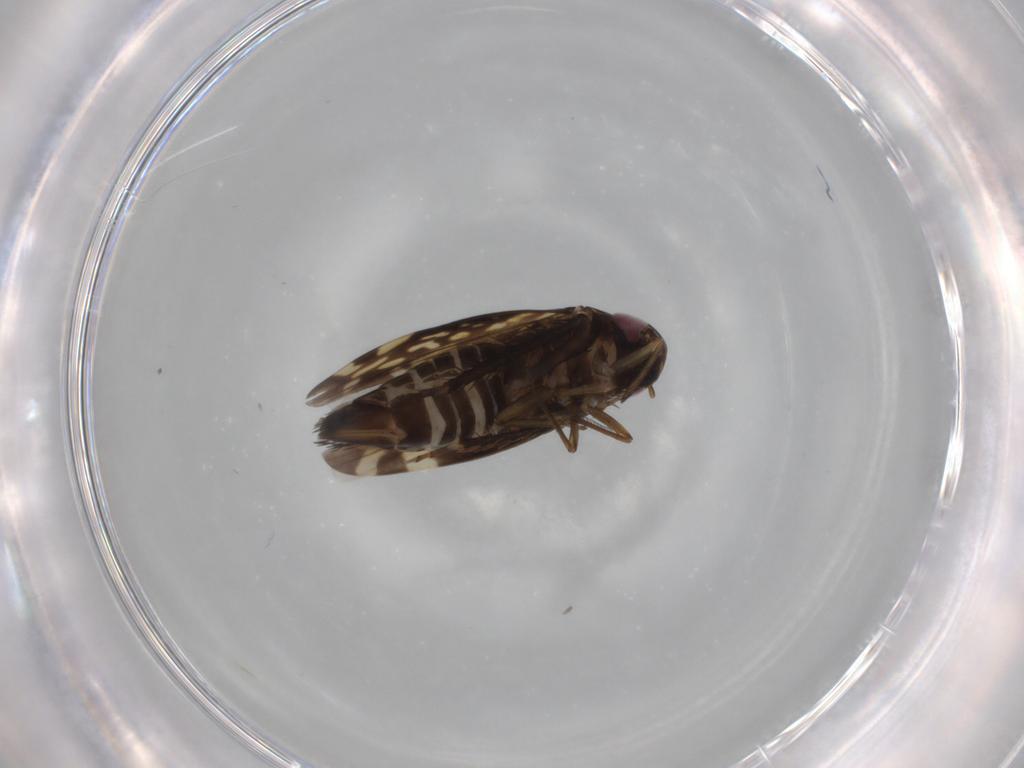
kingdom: Animalia
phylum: Arthropoda
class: Insecta
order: Hemiptera
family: Cicadellidae
